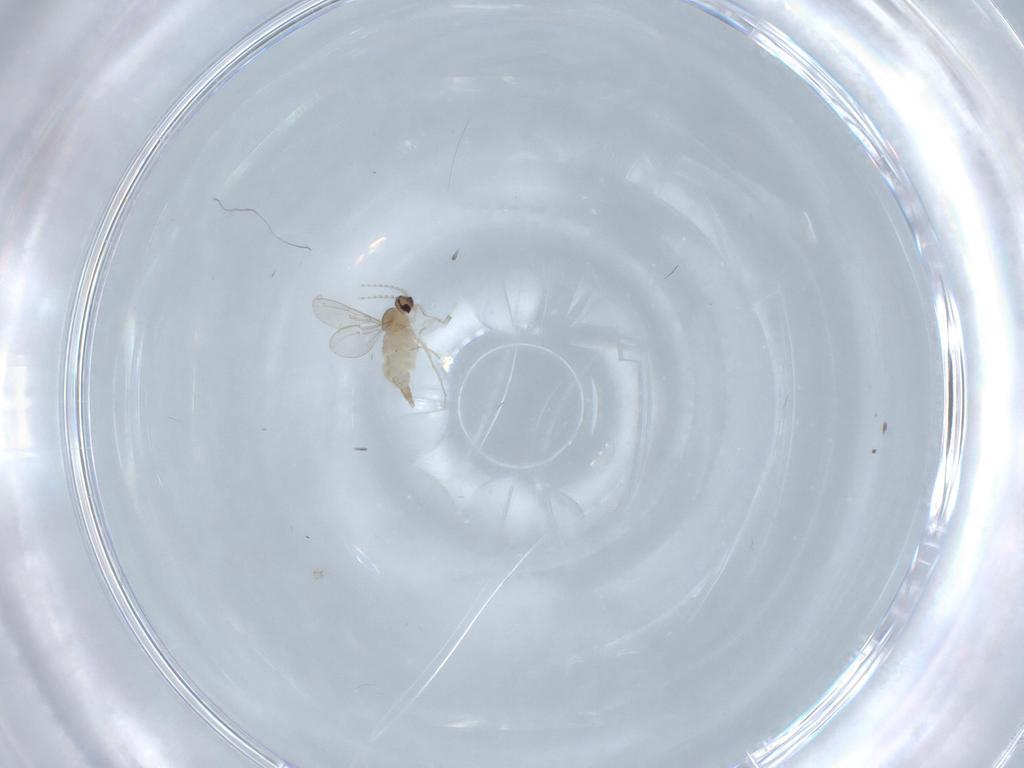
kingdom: Animalia
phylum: Arthropoda
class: Insecta
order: Diptera
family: Cecidomyiidae
